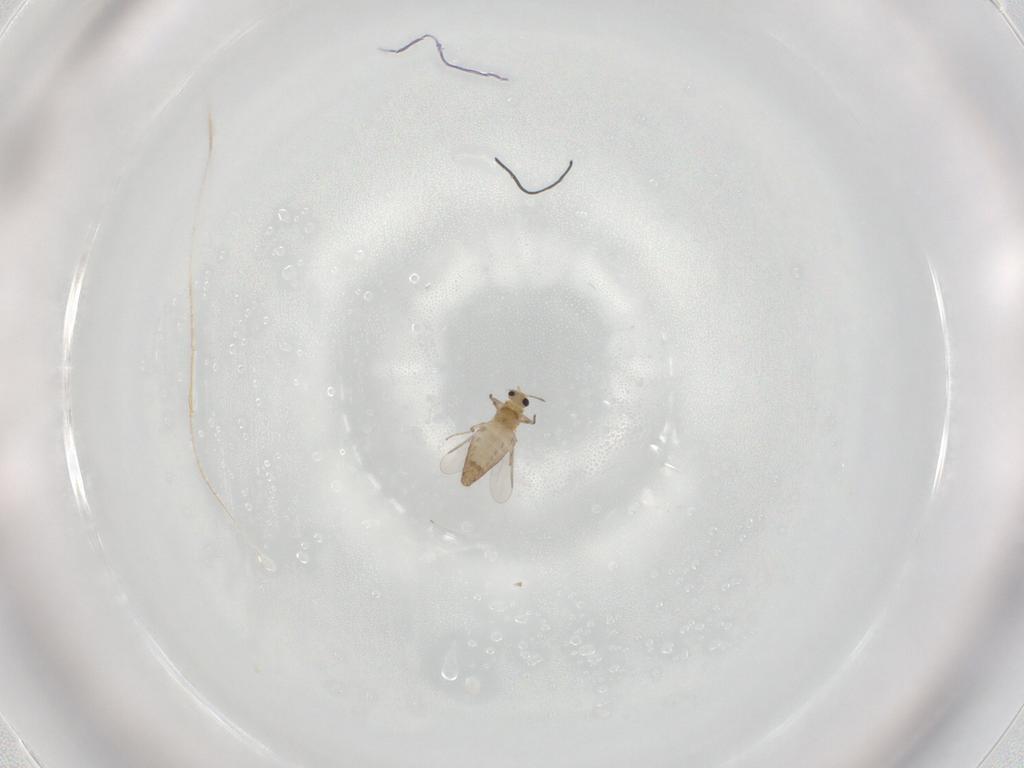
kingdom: Animalia
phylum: Arthropoda
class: Insecta
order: Diptera
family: Chironomidae
